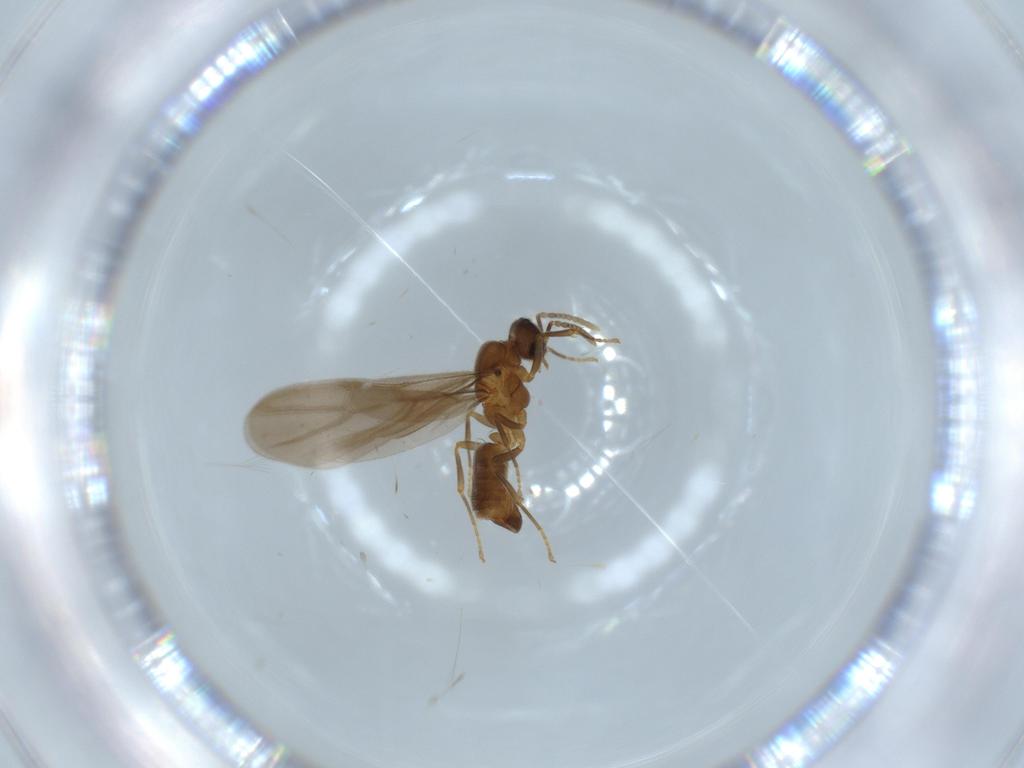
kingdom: Animalia
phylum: Arthropoda
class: Insecta
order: Hymenoptera
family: Formicidae
